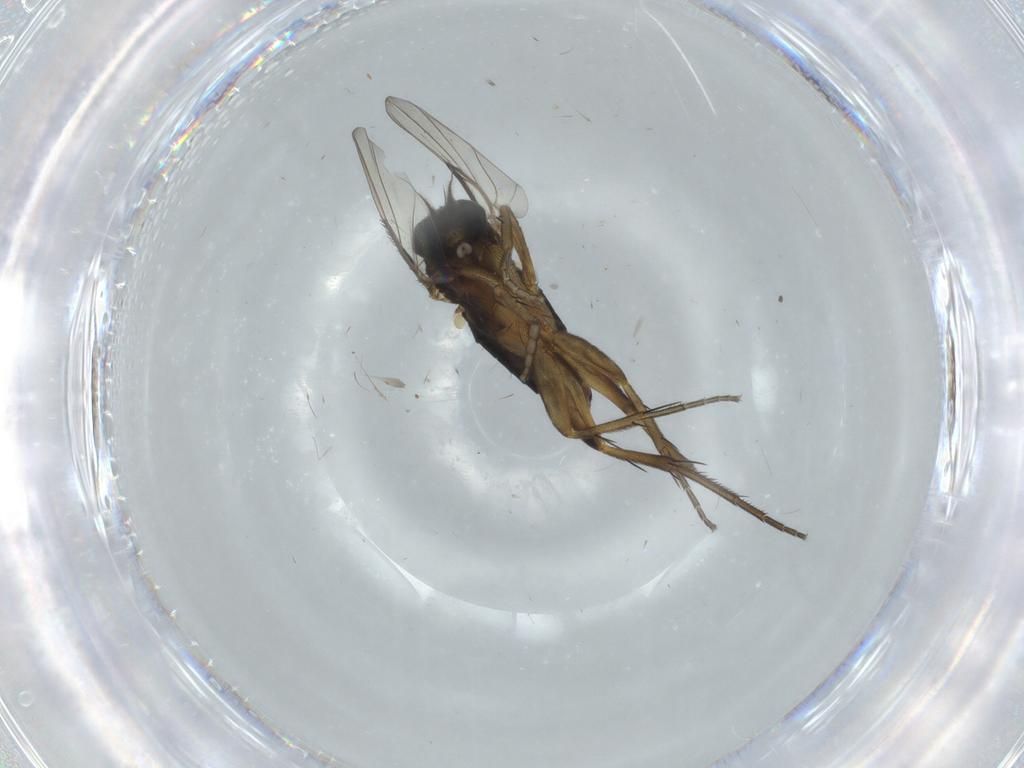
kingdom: Animalia
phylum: Arthropoda
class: Insecta
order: Diptera
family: Phoridae
